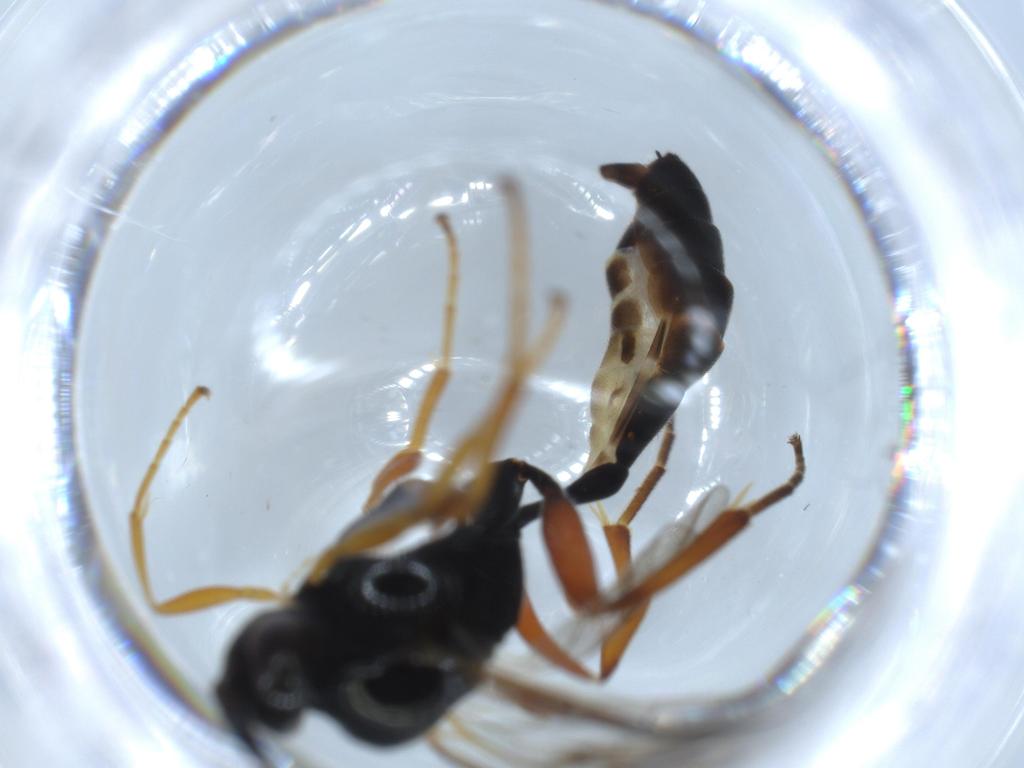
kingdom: Animalia
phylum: Arthropoda
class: Insecta
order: Hymenoptera
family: Ichneumonidae
